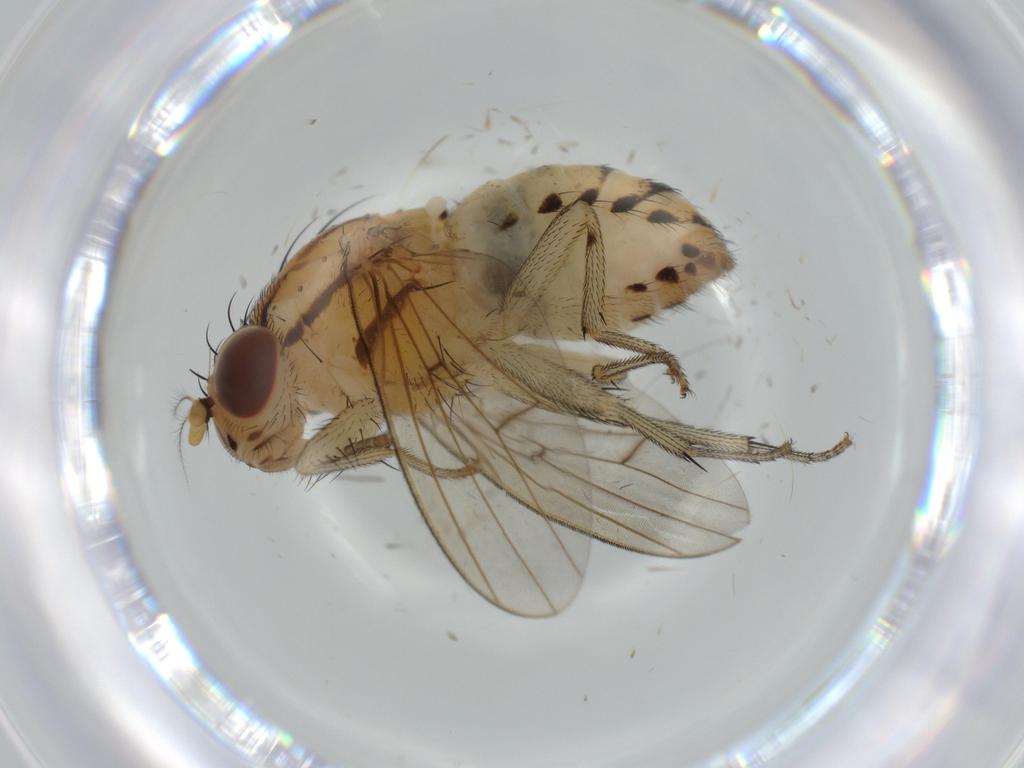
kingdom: Animalia
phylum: Arthropoda
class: Insecta
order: Diptera
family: Lauxaniidae
